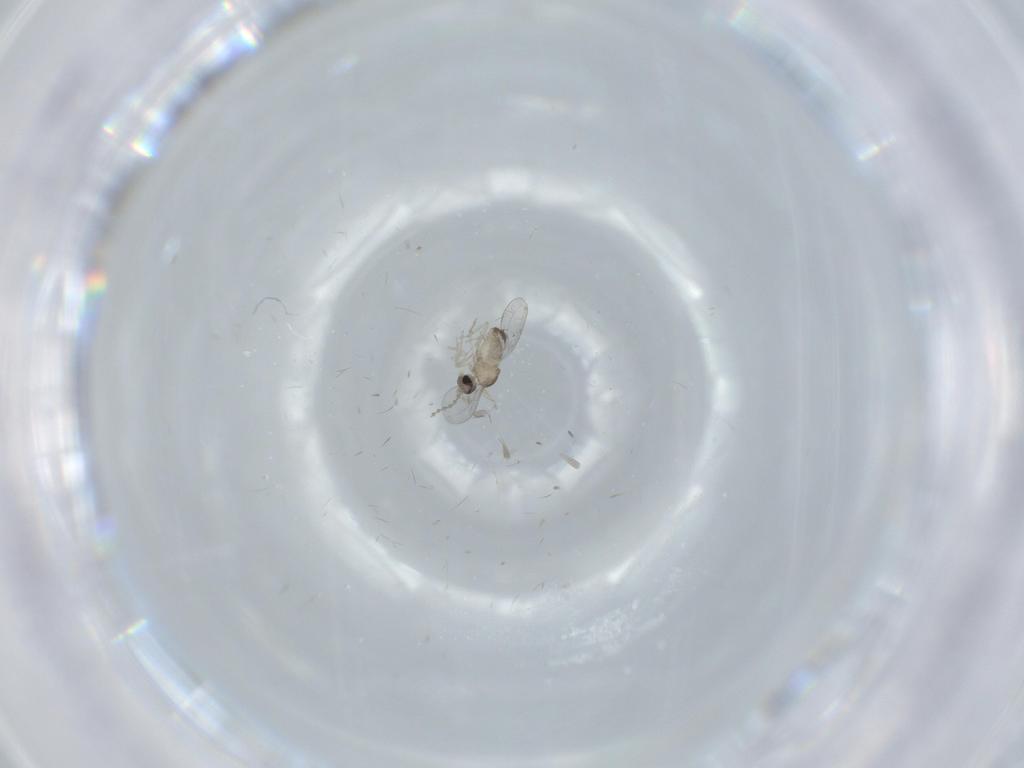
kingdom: Animalia
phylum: Arthropoda
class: Insecta
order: Diptera
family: Cecidomyiidae
